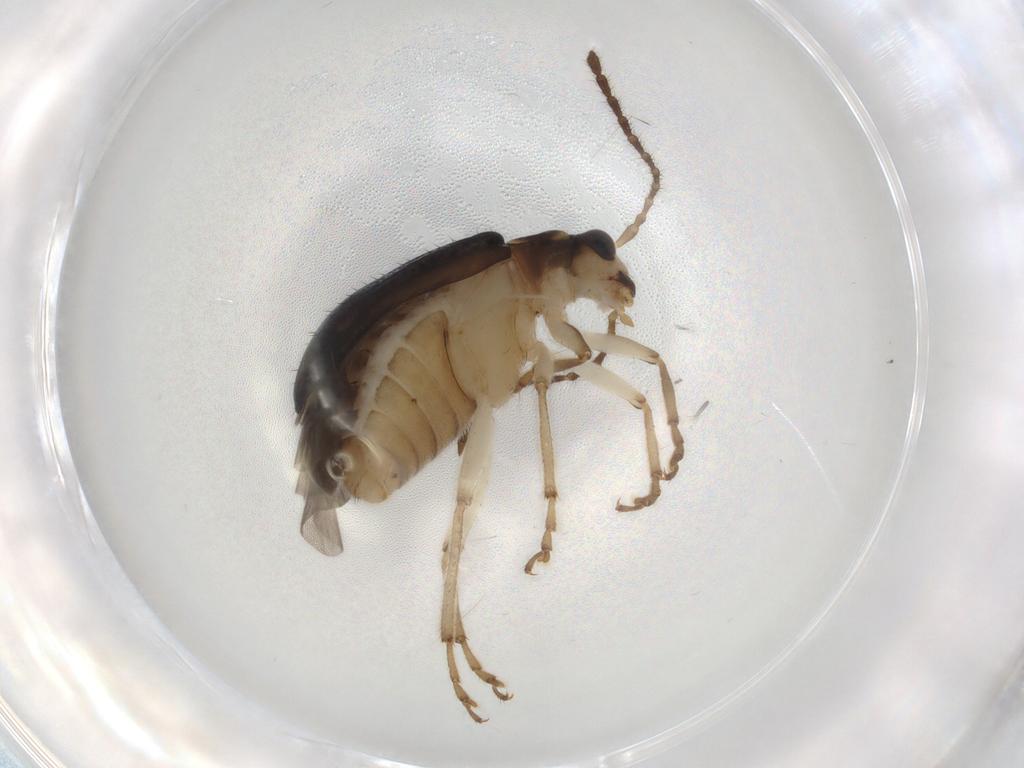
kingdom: Animalia
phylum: Arthropoda
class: Insecta
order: Coleoptera
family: Chrysomelidae
